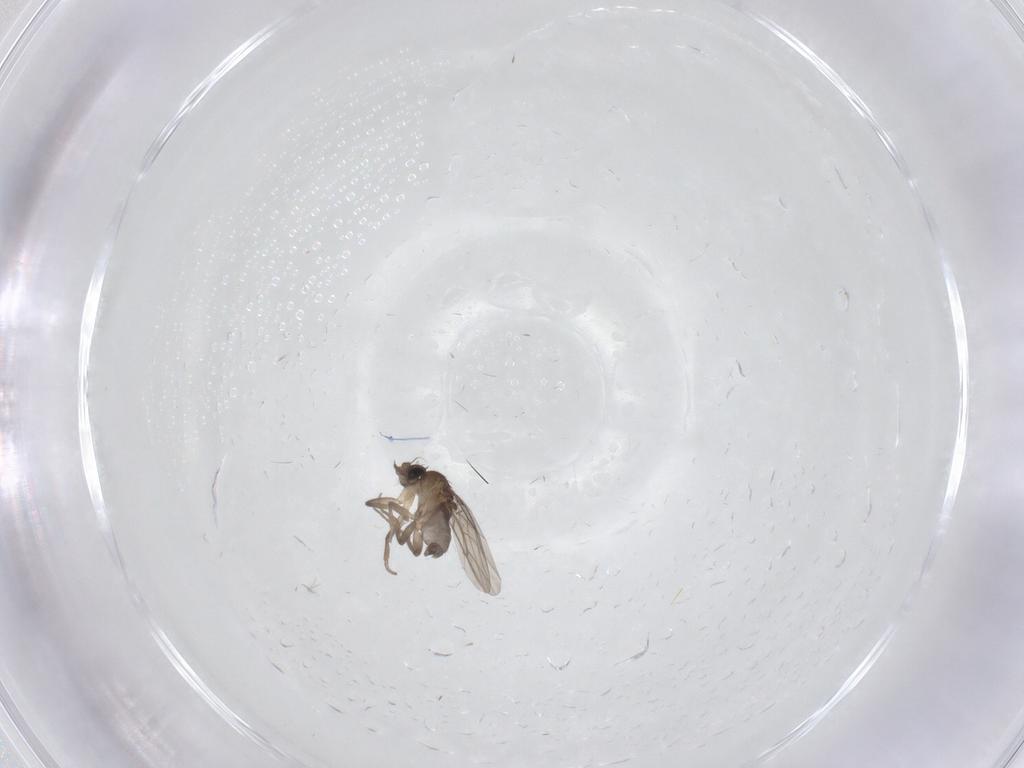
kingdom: Animalia
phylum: Arthropoda
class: Insecta
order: Diptera
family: Phoridae
